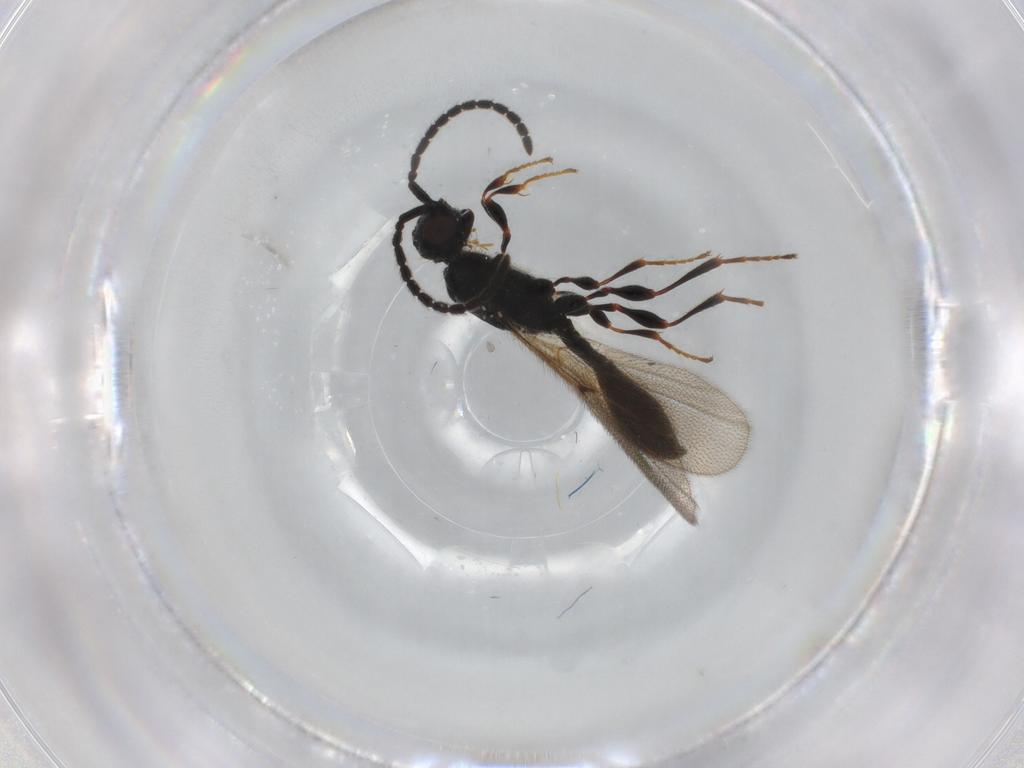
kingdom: Animalia
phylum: Arthropoda
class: Insecta
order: Hymenoptera
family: Diapriidae
